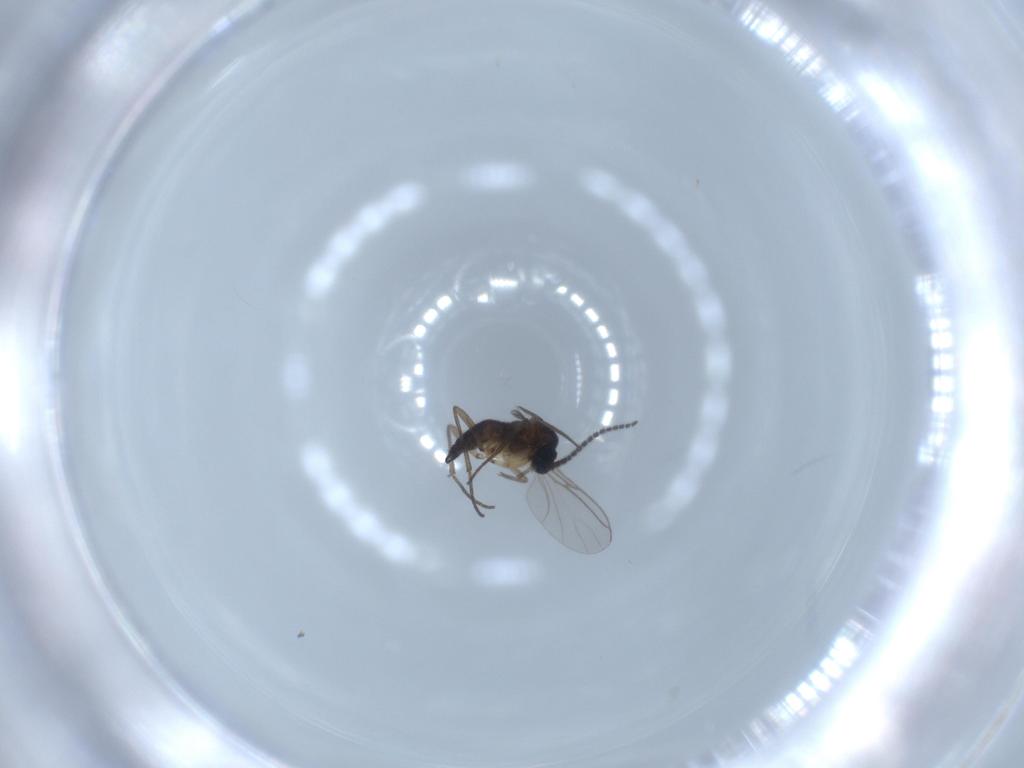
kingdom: Animalia
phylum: Arthropoda
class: Insecta
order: Diptera
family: Sciaridae
